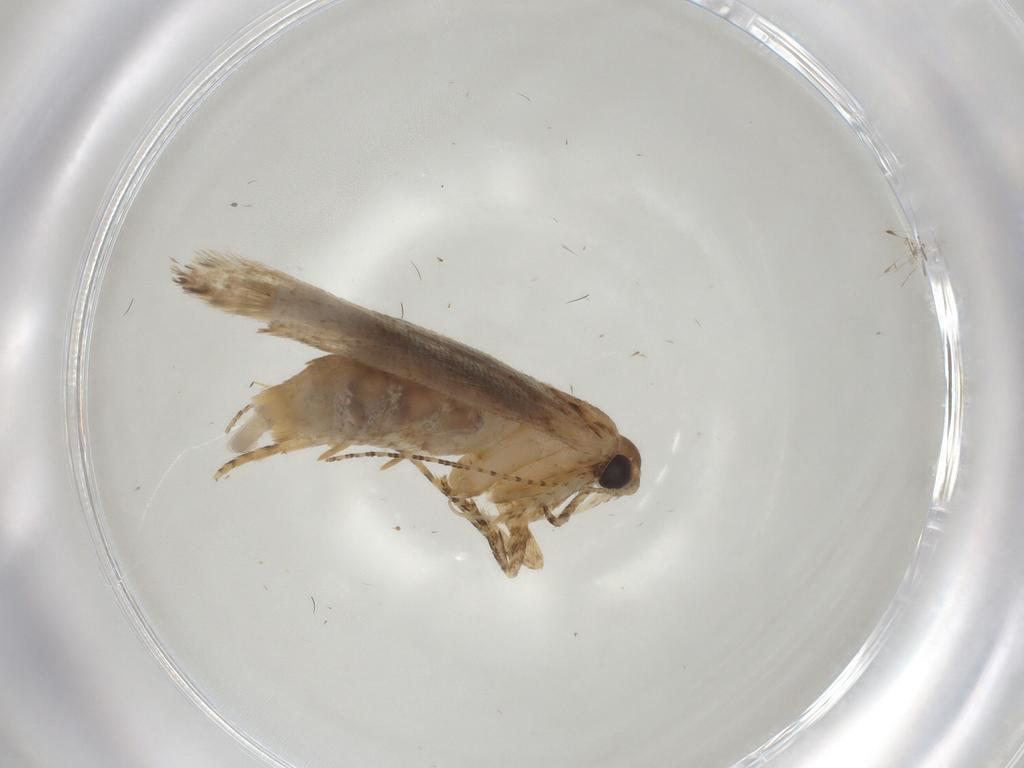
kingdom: Animalia
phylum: Arthropoda
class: Insecta
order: Lepidoptera
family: Gelechiidae
